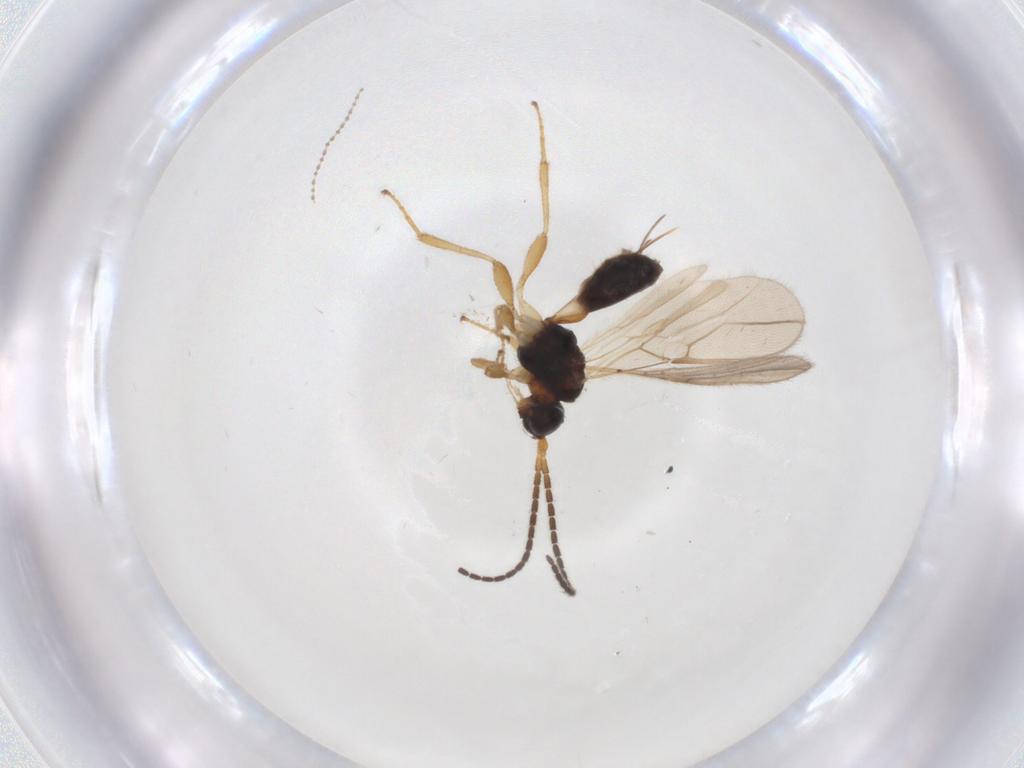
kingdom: Animalia
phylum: Arthropoda
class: Insecta
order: Hymenoptera
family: Braconidae
